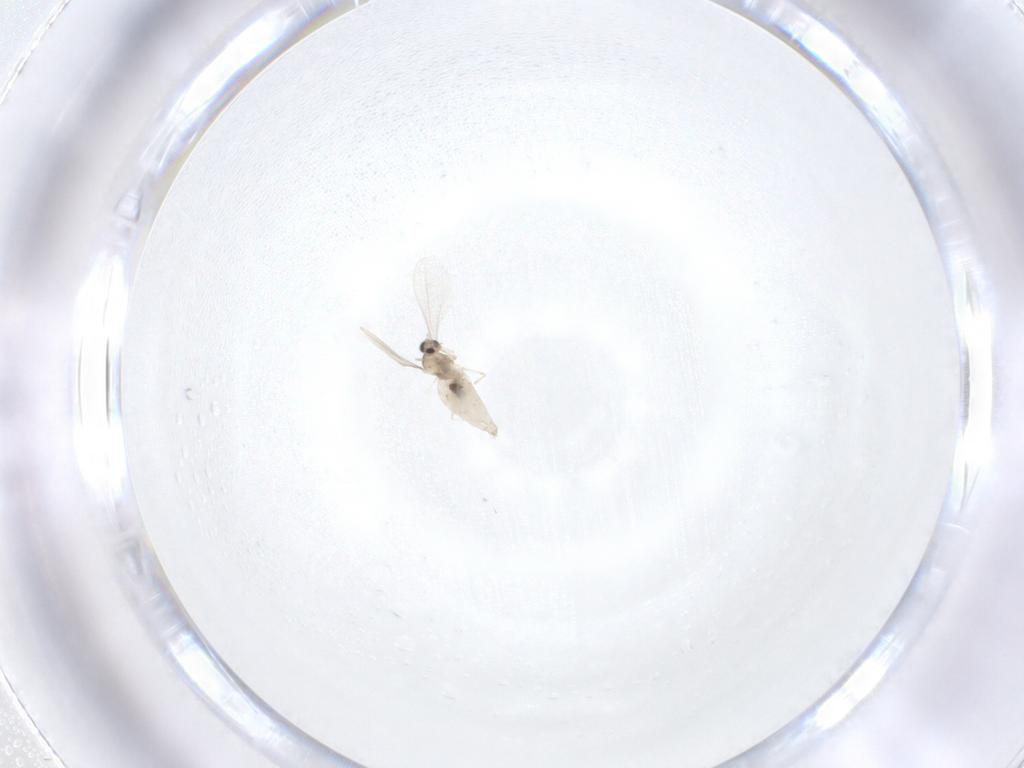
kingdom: Animalia
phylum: Arthropoda
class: Insecta
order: Diptera
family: Cecidomyiidae
